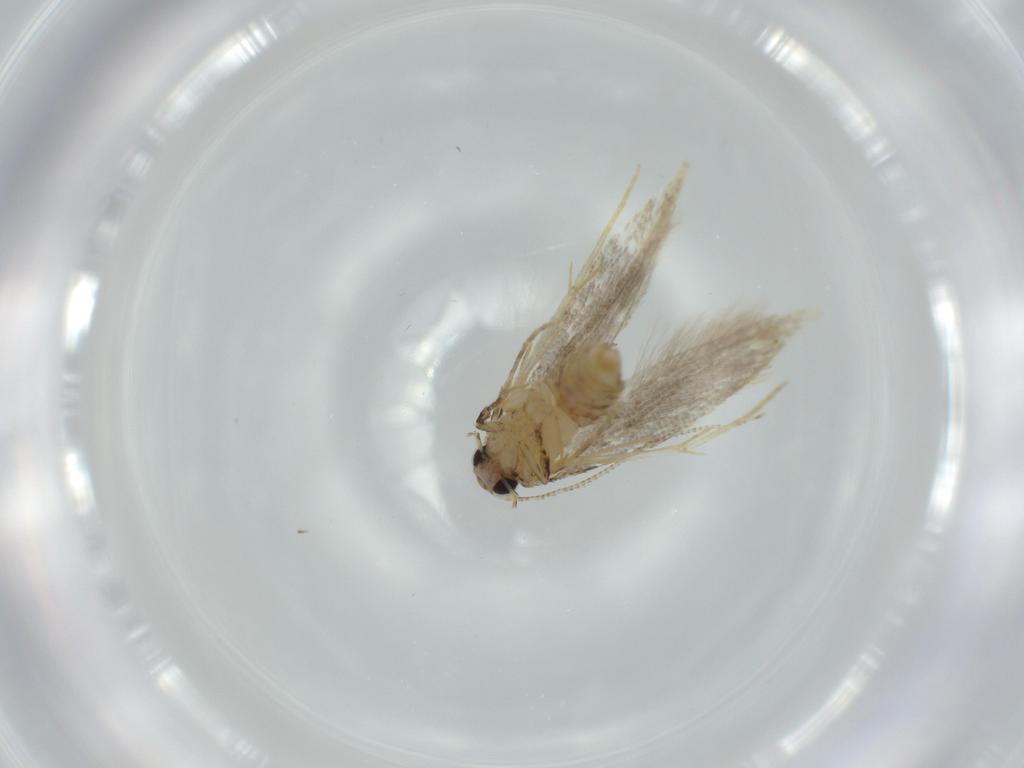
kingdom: Animalia
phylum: Arthropoda
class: Insecta
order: Lepidoptera
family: Tineidae
